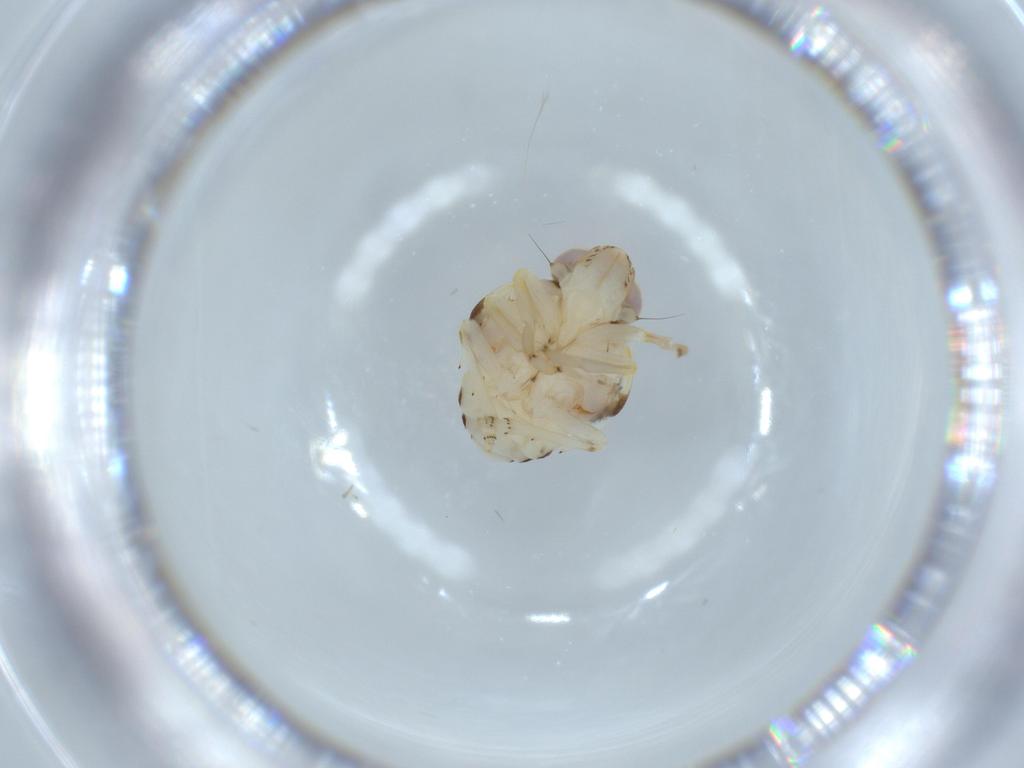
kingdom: Animalia
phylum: Arthropoda
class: Insecta
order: Hemiptera
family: Nogodinidae
